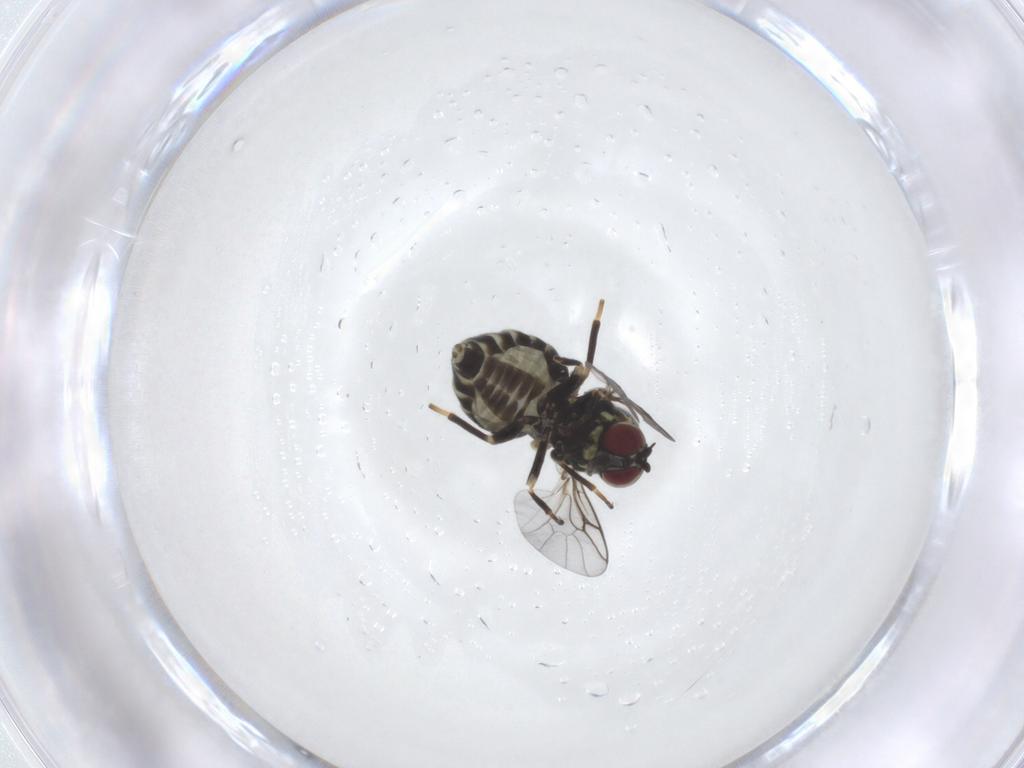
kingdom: Animalia
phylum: Arthropoda
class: Insecta
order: Diptera
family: Mythicomyiidae
